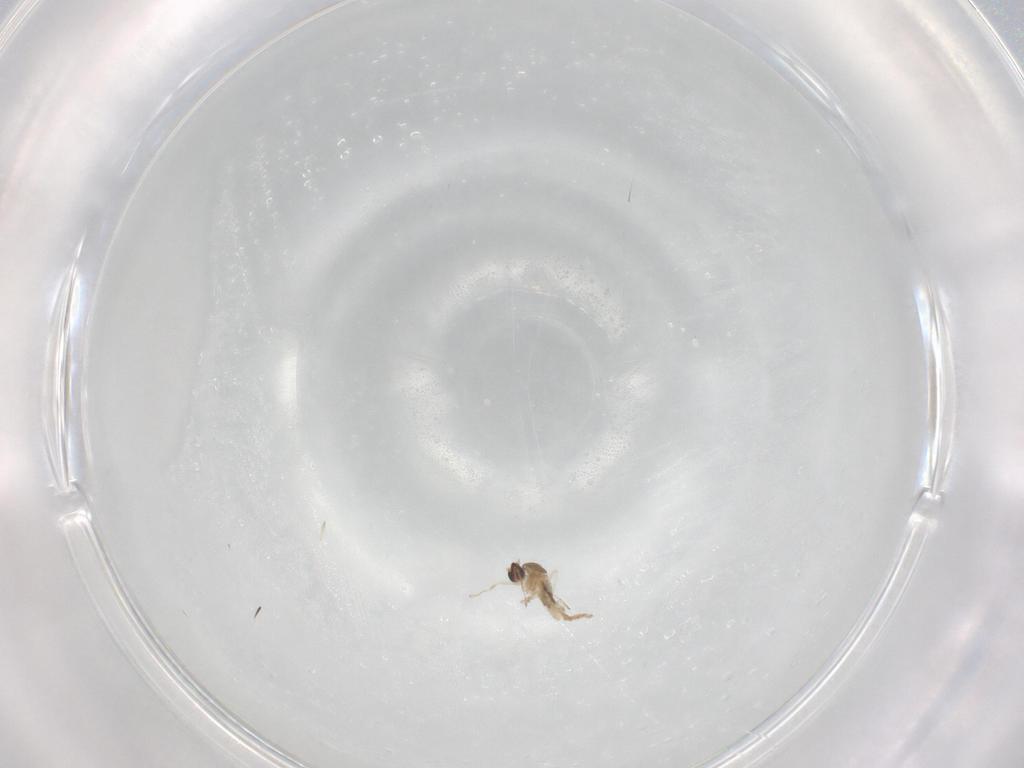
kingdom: Animalia
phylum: Arthropoda
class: Insecta
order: Diptera
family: Cecidomyiidae
